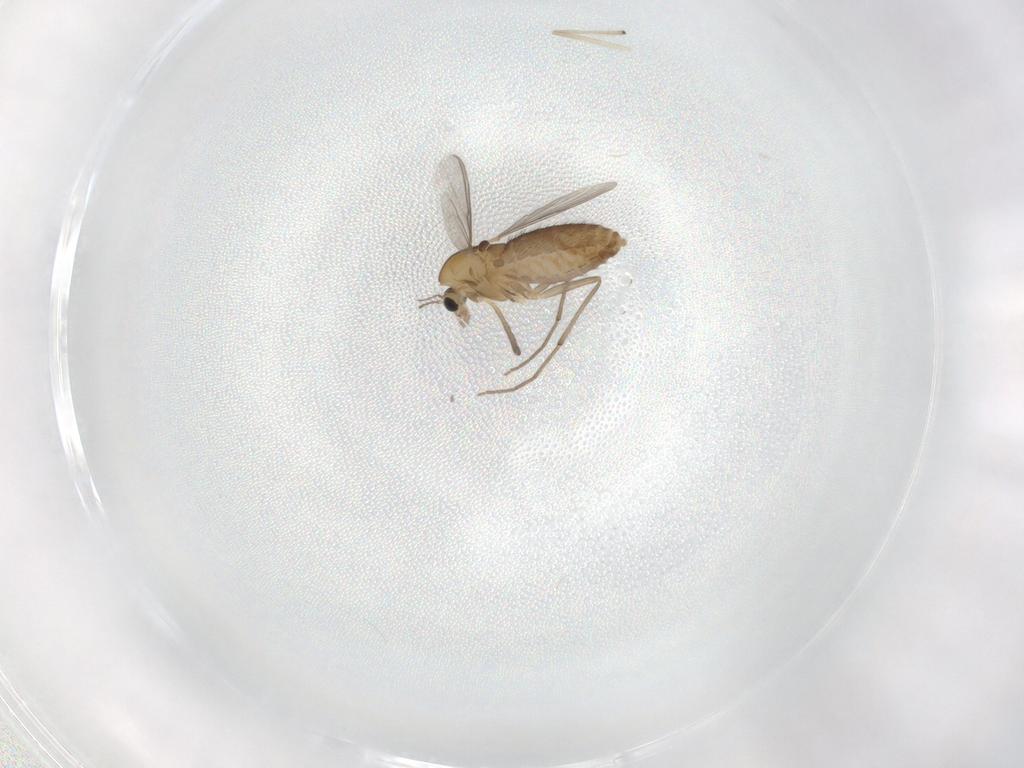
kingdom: Animalia
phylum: Arthropoda
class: Insecta
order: Diptera
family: Chironomidae
